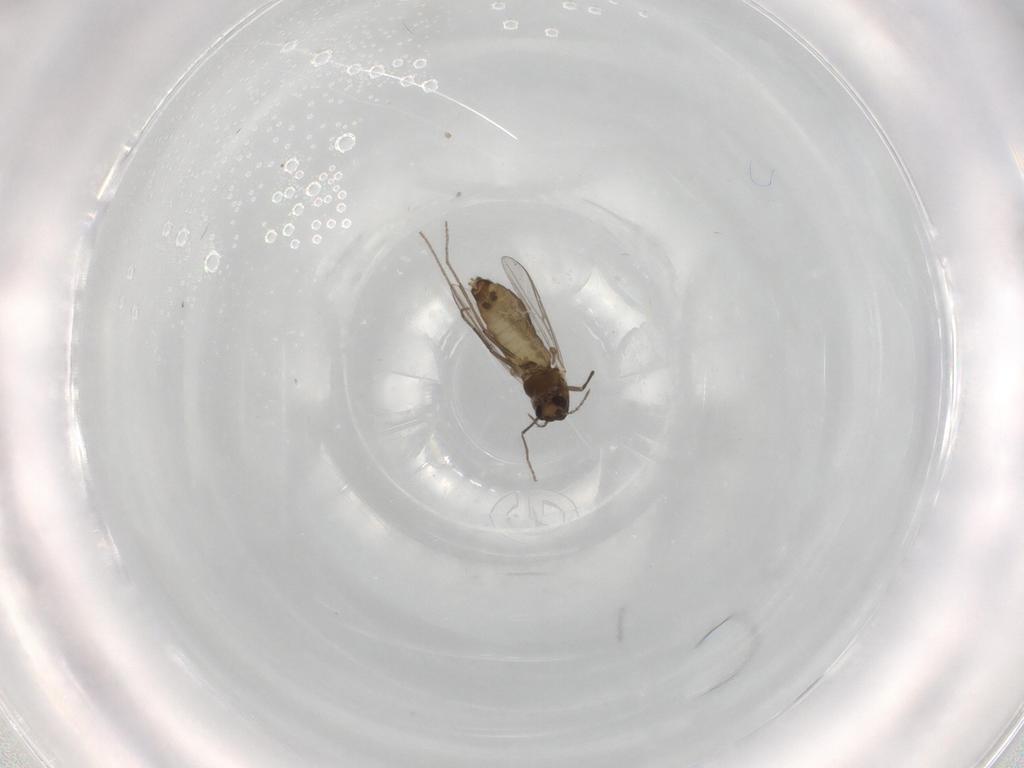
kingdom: Animalia
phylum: Arthropoda
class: Insecta
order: Diptera
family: Chironomidae
